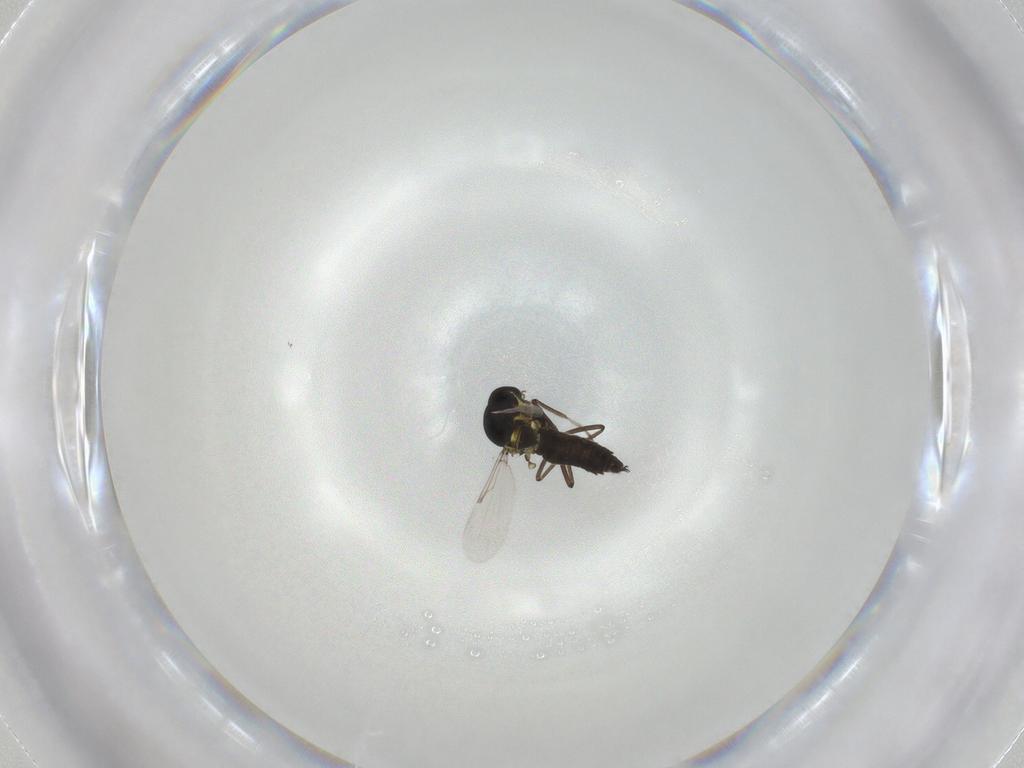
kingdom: Animalia
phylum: Arthropoda
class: Insecta
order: Diptera
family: Ceratopogonidae
